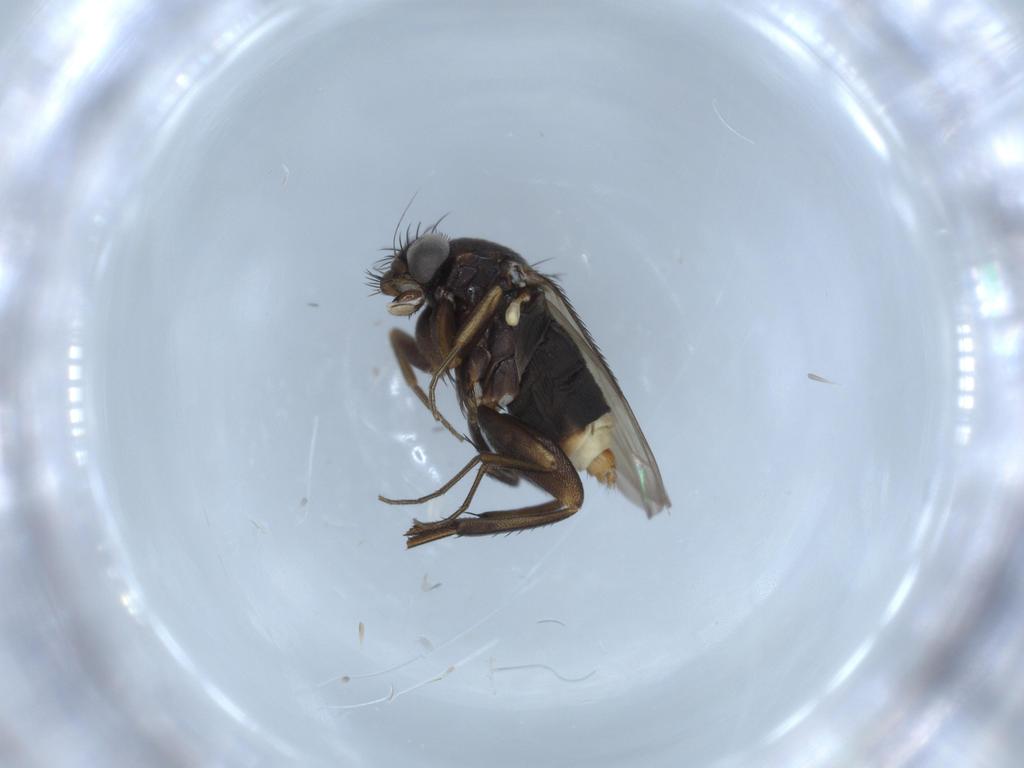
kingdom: Animalia
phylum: Arthropoda
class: Insecta
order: Diptera
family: Phoridae
